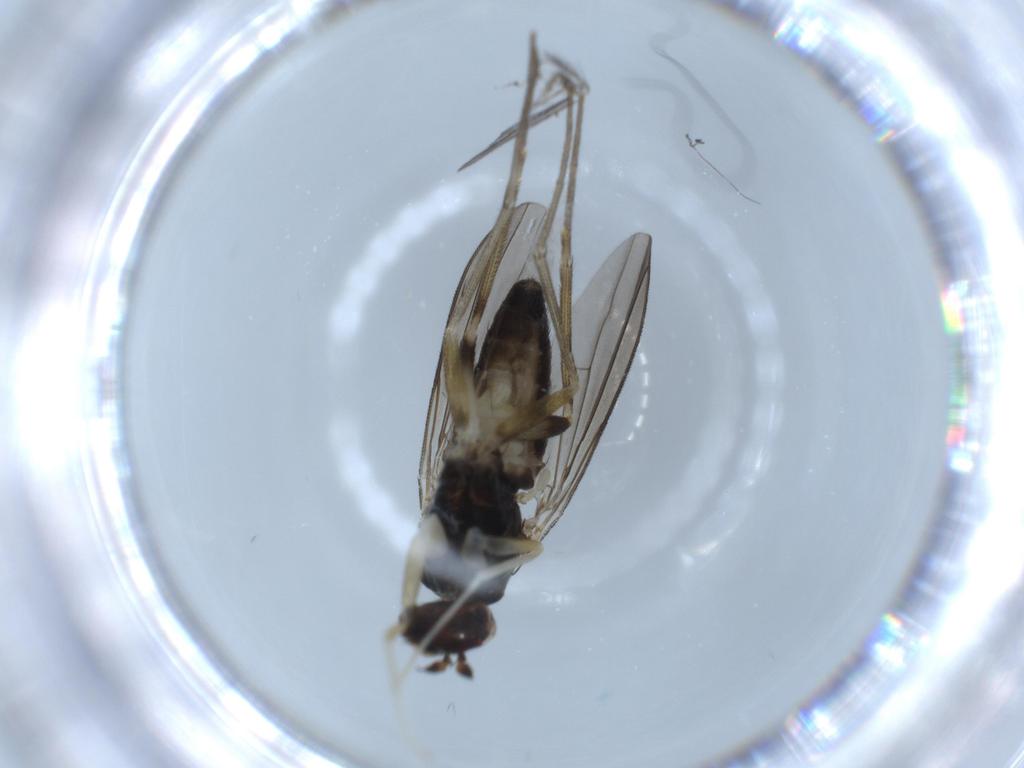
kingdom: Animalia
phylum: Arthropoda
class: Insecta
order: Diptera
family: Dolichopodidae
